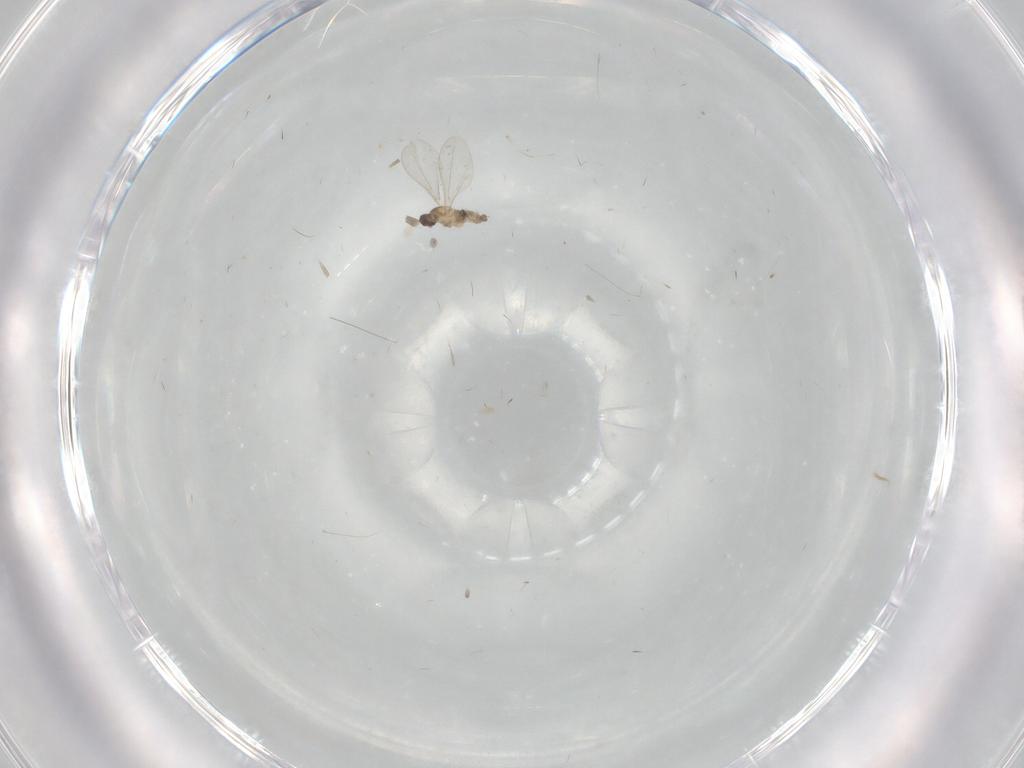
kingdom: Animalia
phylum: Arthropoda
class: Insecta
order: Diptera
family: Cecidomyiidae
